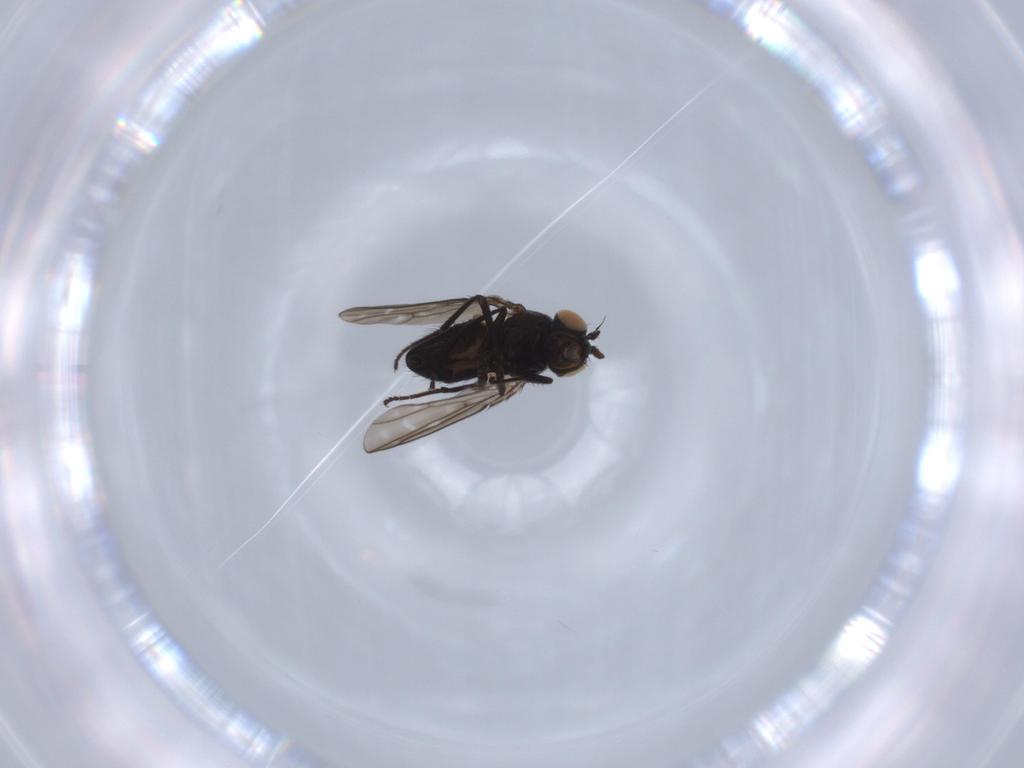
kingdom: Animalia
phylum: Arthropoda
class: Insecta
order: Diptera
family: Ephydridae
